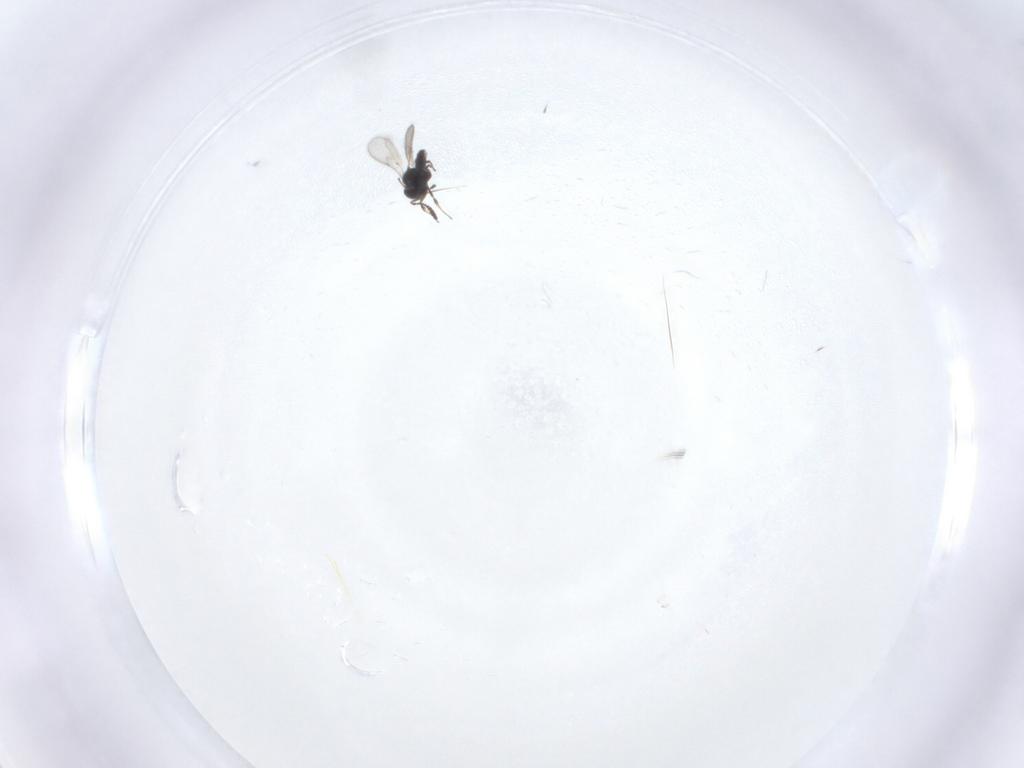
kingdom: Animalia
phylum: Arthropoda
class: Insecta
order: Hymenoptera
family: Scelionidae
